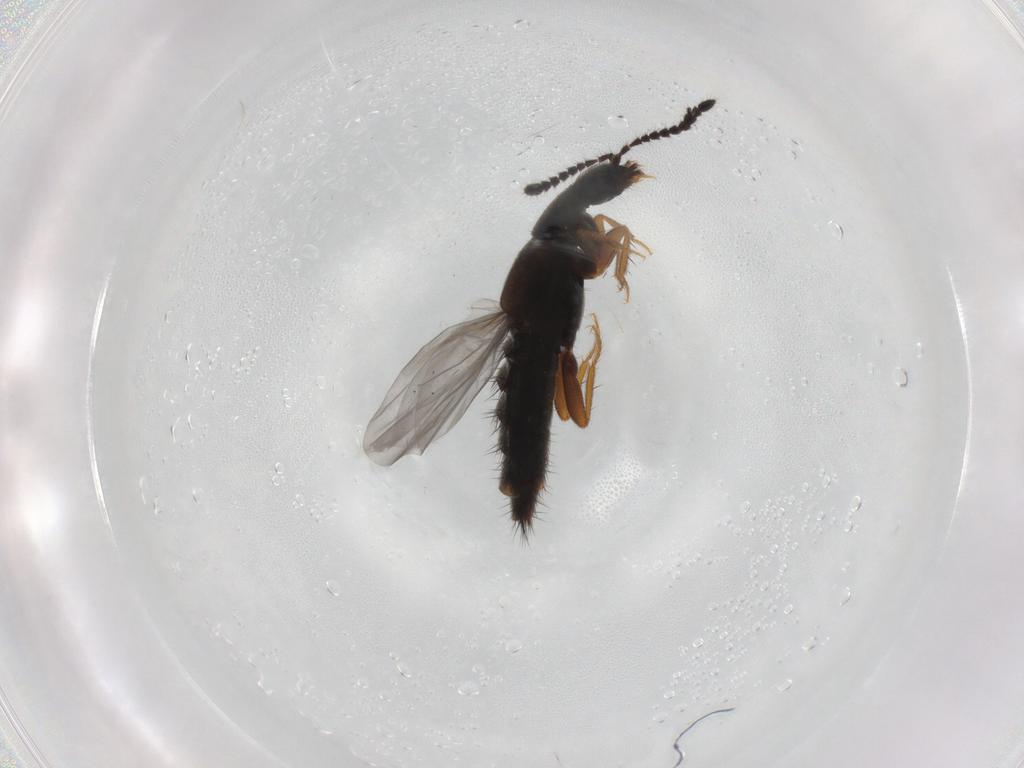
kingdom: Animalia
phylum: Arthropoda
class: Insecta
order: Coleoptera
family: Staphylinidae
